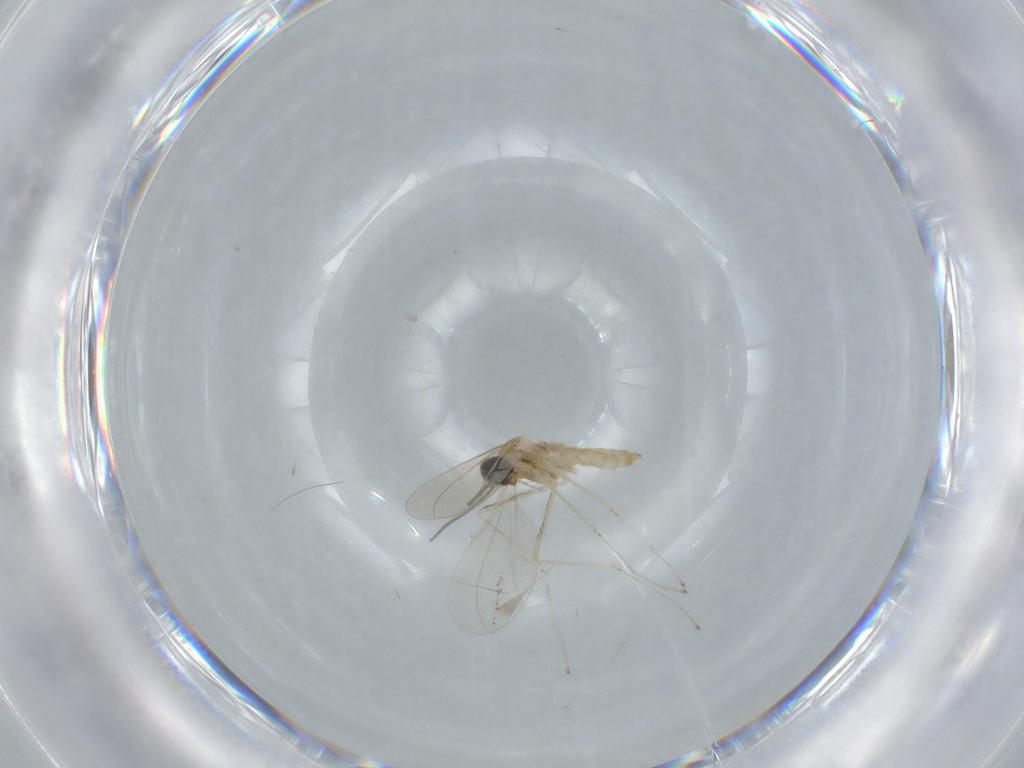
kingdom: Animalia
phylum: Arthropoda
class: Insecta
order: Diptera
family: Cecidomyiidae
